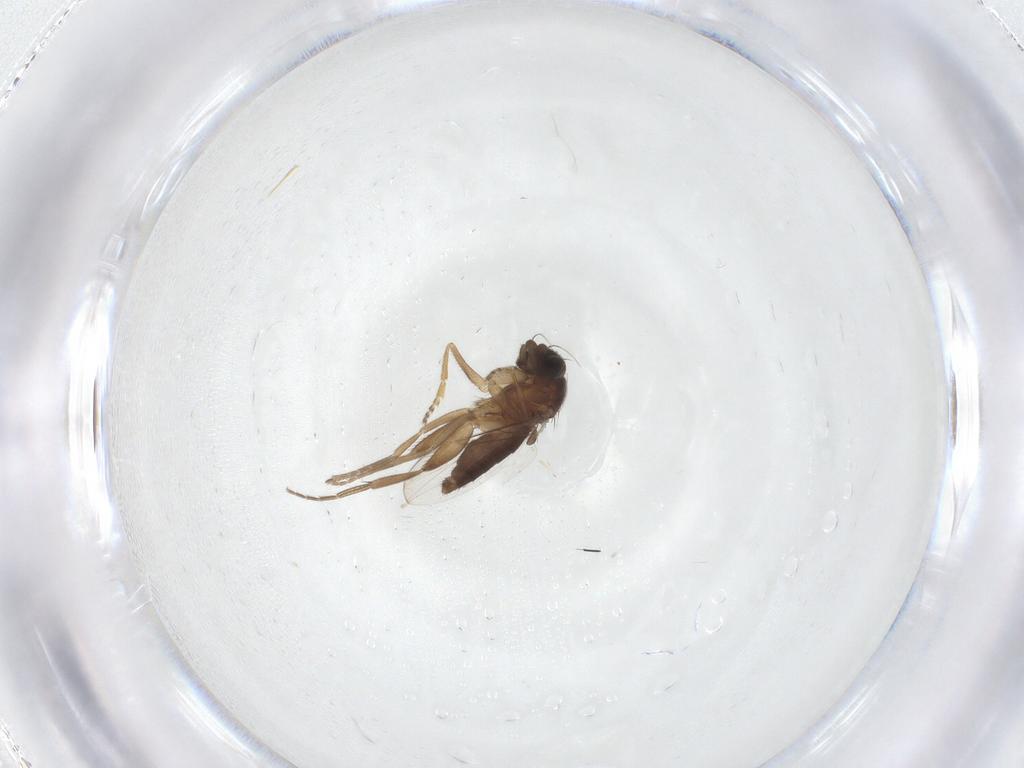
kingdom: Animalia
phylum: Arthropoda
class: Insecta
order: Diptera
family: Phoridae
